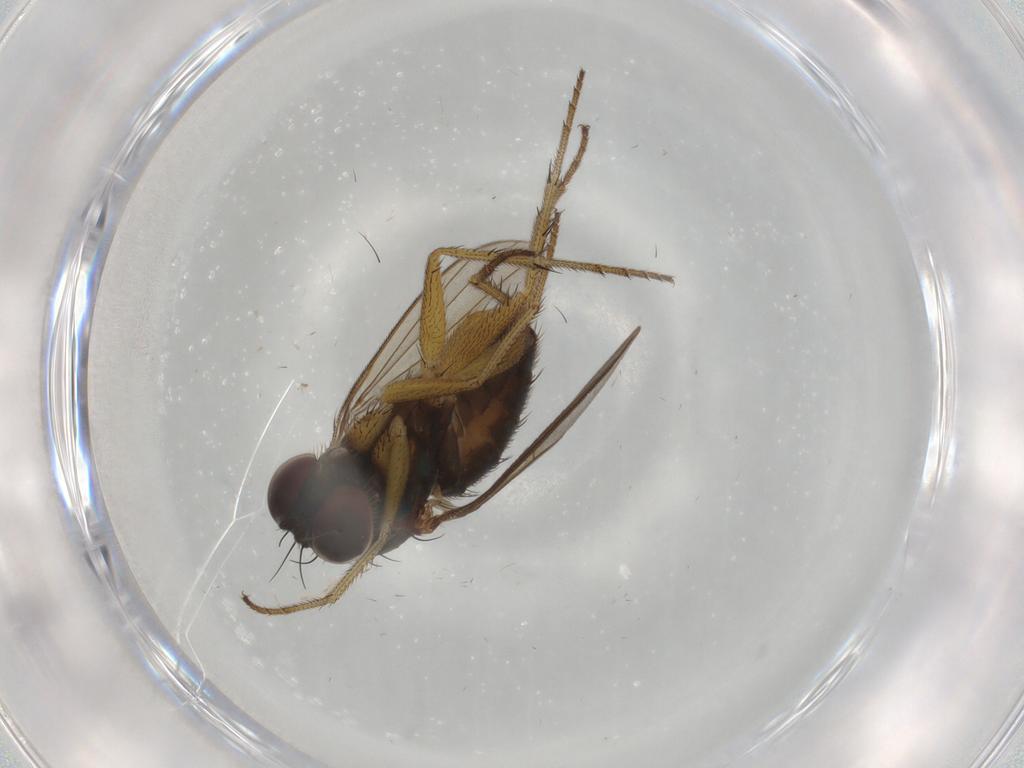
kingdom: Animalia
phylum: Arthropoda
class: Insecta
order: Diptera
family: Dolichopodidae
